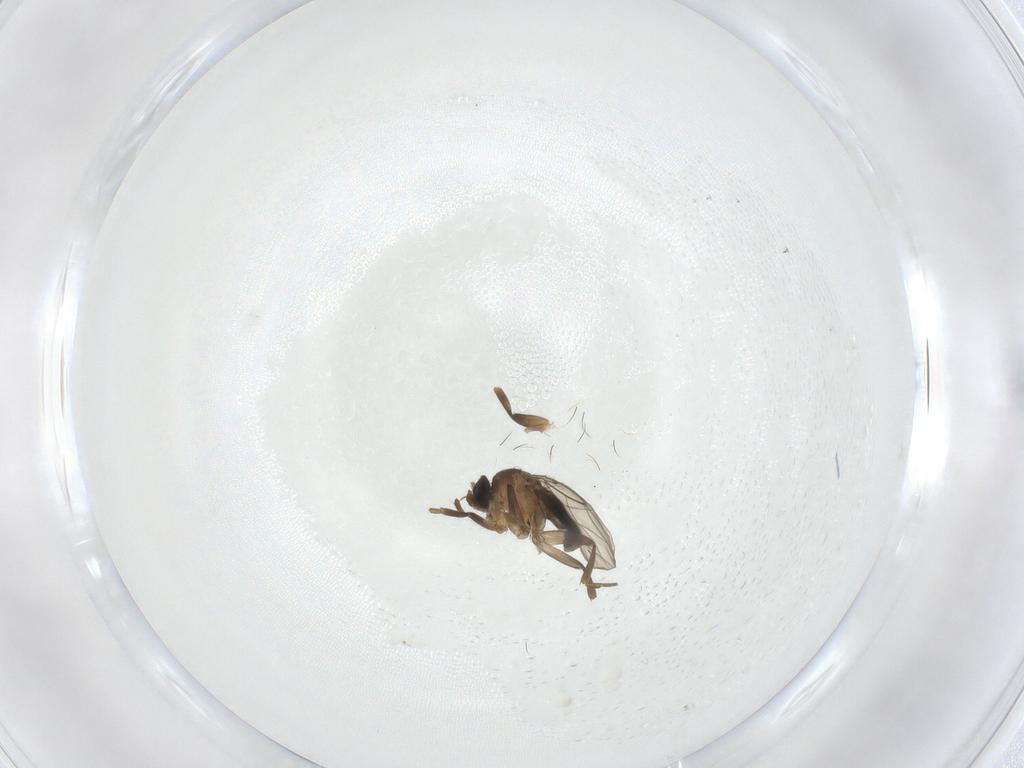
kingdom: Animalia
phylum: Arthropoda
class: Insecta
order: Diptera
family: Phoridae
